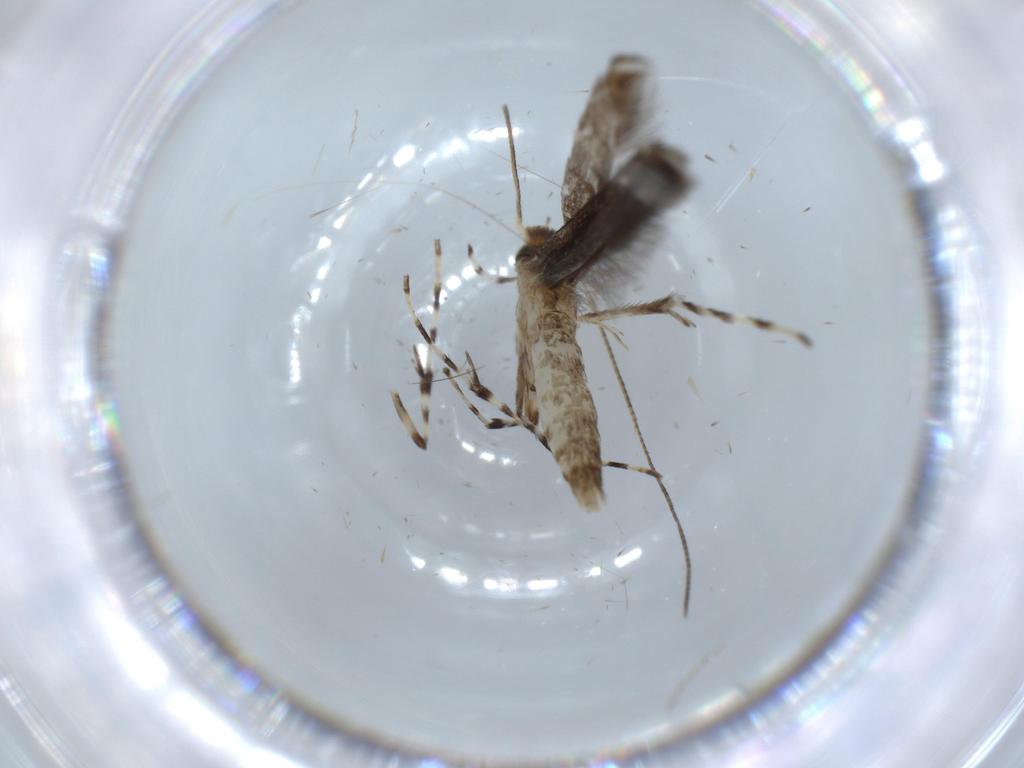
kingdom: Animalia
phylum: Arthropoda
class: Insecta
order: Lepidoptera
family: Gracillariidae
